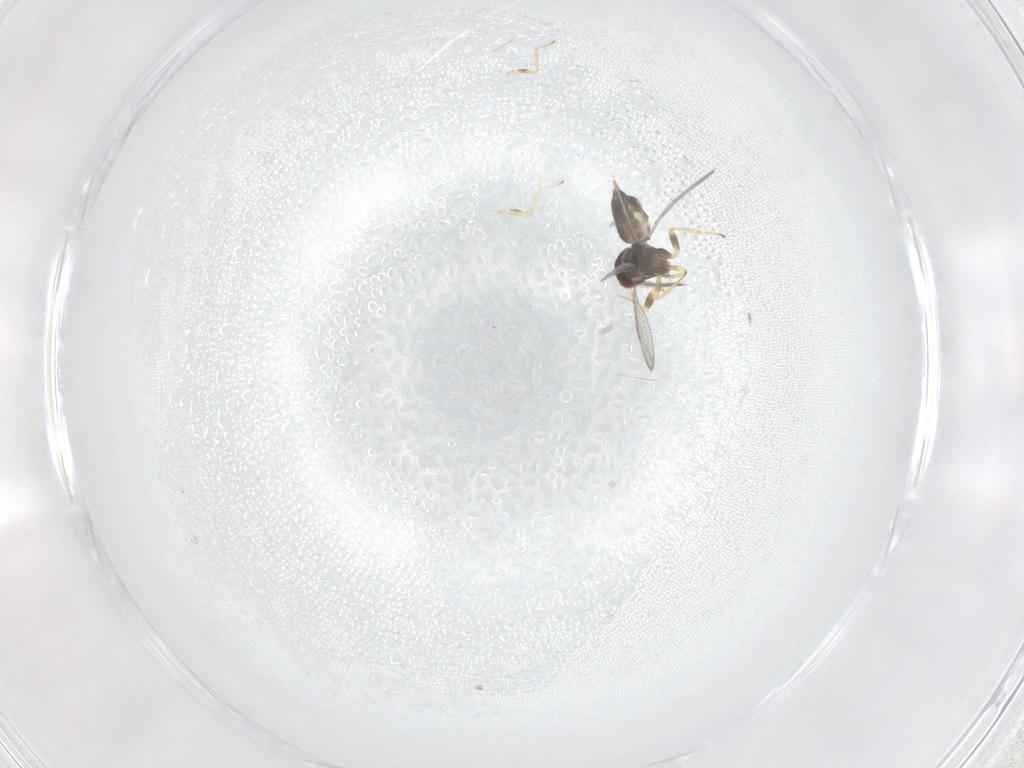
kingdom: Animalia
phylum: Arthropoda
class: Insecta
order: Hymenoptera
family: Eulophidae
